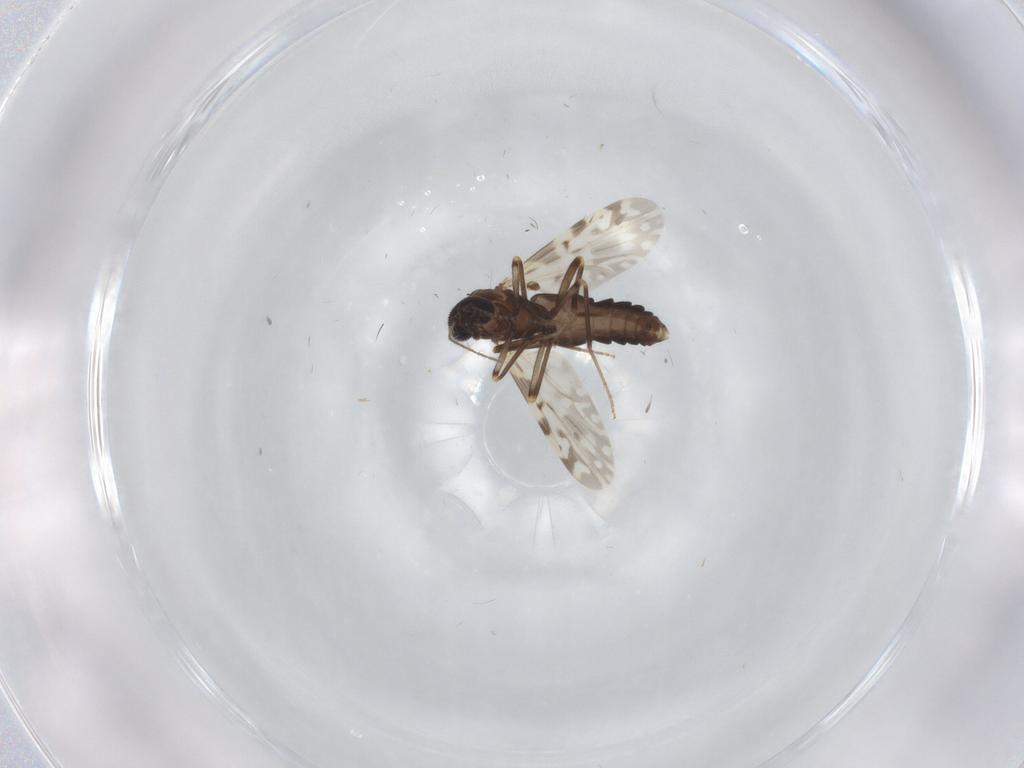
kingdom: Animalia
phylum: Arthropoda
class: Insecta
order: Diptera
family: Ceratopogonidae
